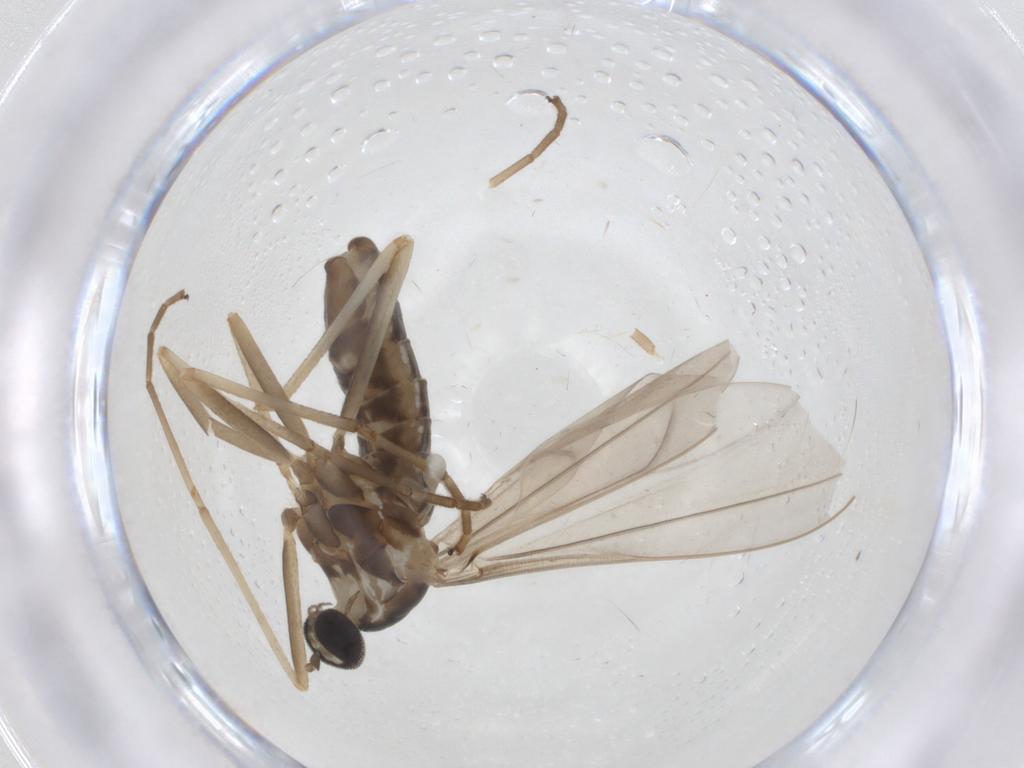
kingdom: Animalia
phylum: Arthropoda
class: Insecta
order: Diptera
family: Cecidomyiidae
